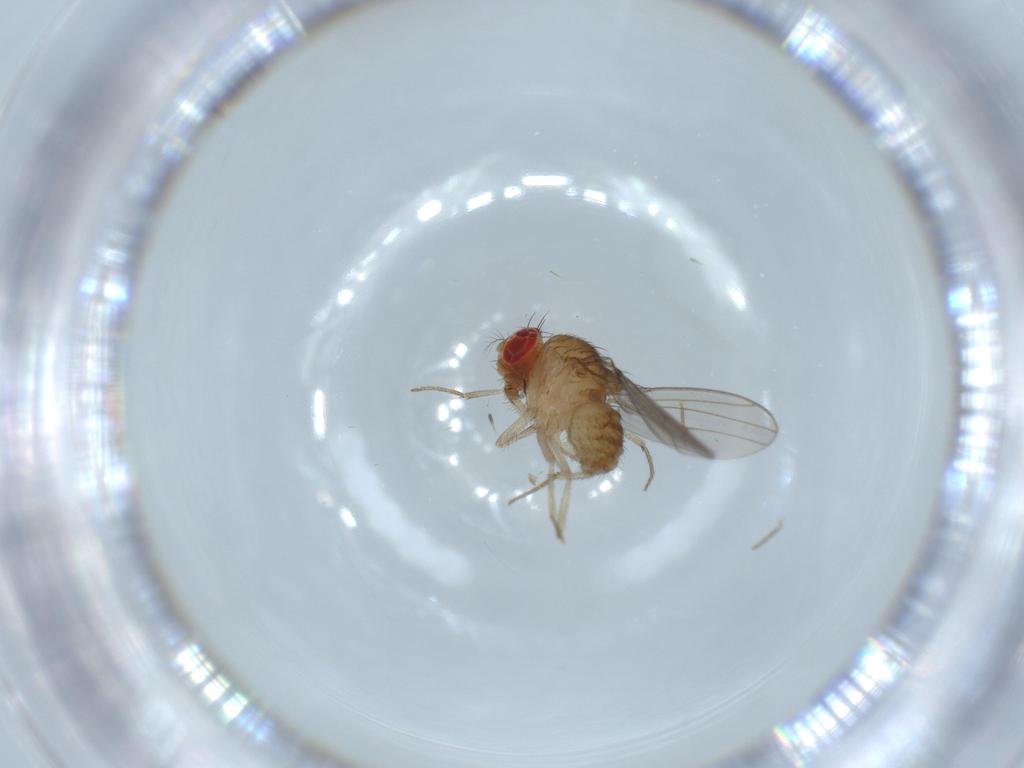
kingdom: Animalia
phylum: Arthropoda
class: Insecta
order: Diptera
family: Drosophilidae
